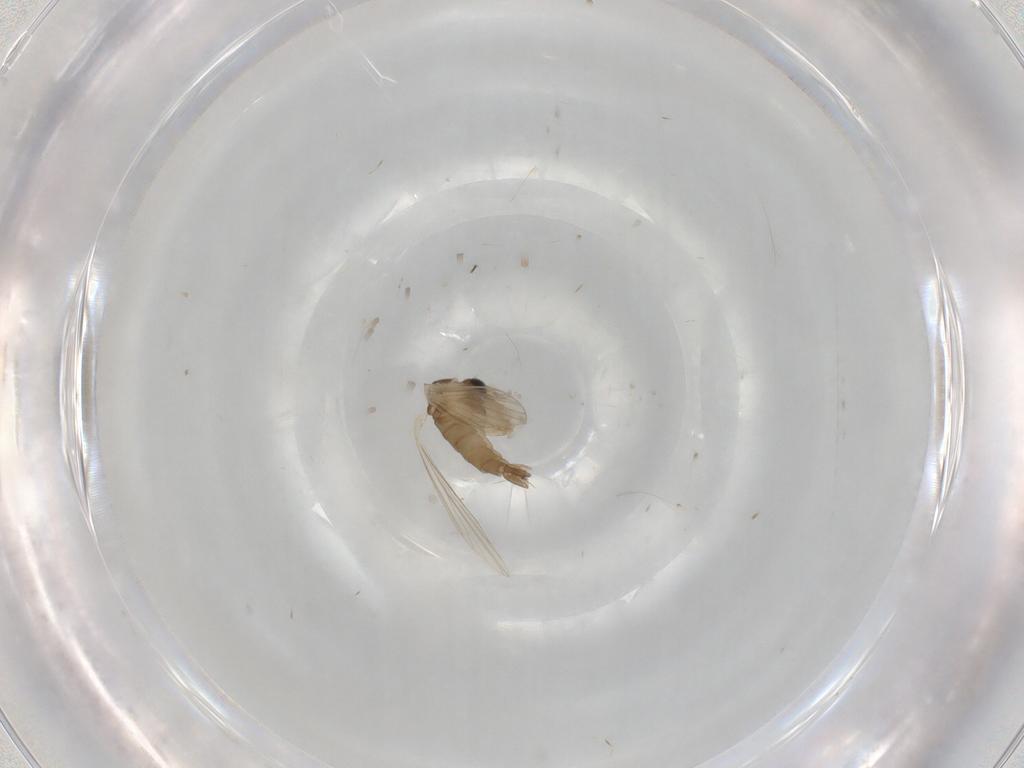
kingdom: Animalia
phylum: Arthropoda
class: Insecta
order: Diptera
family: Psychodidae
